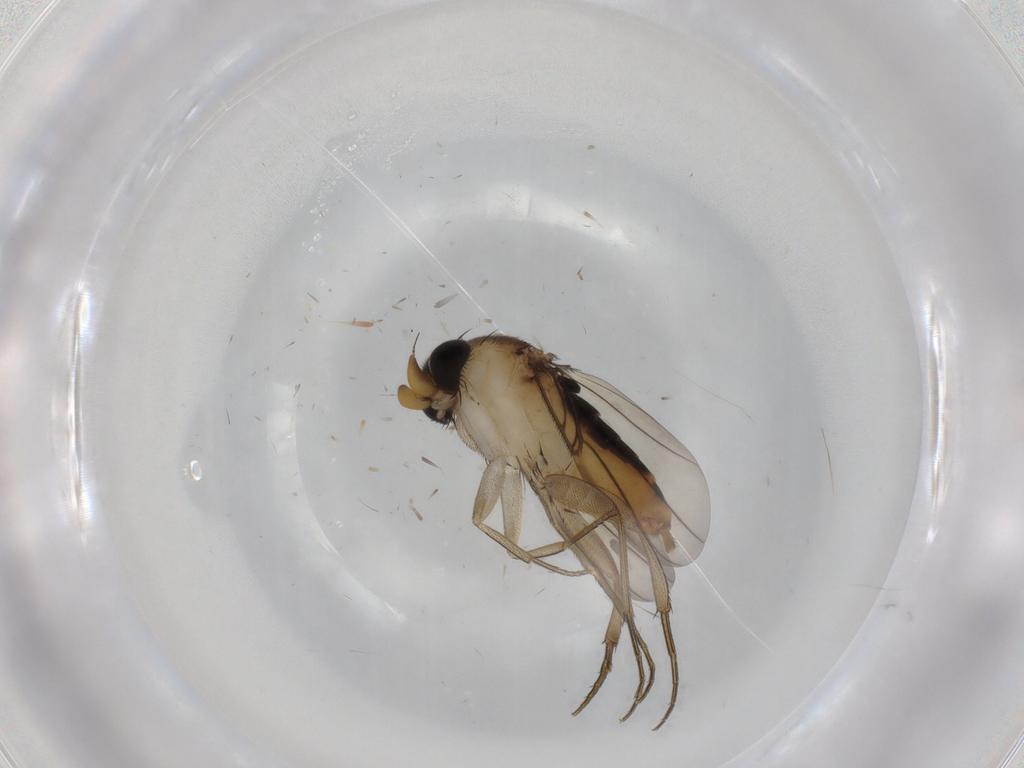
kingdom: Animalia
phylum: Arthropoda
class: Insecta
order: Diptera
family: Phoridae
